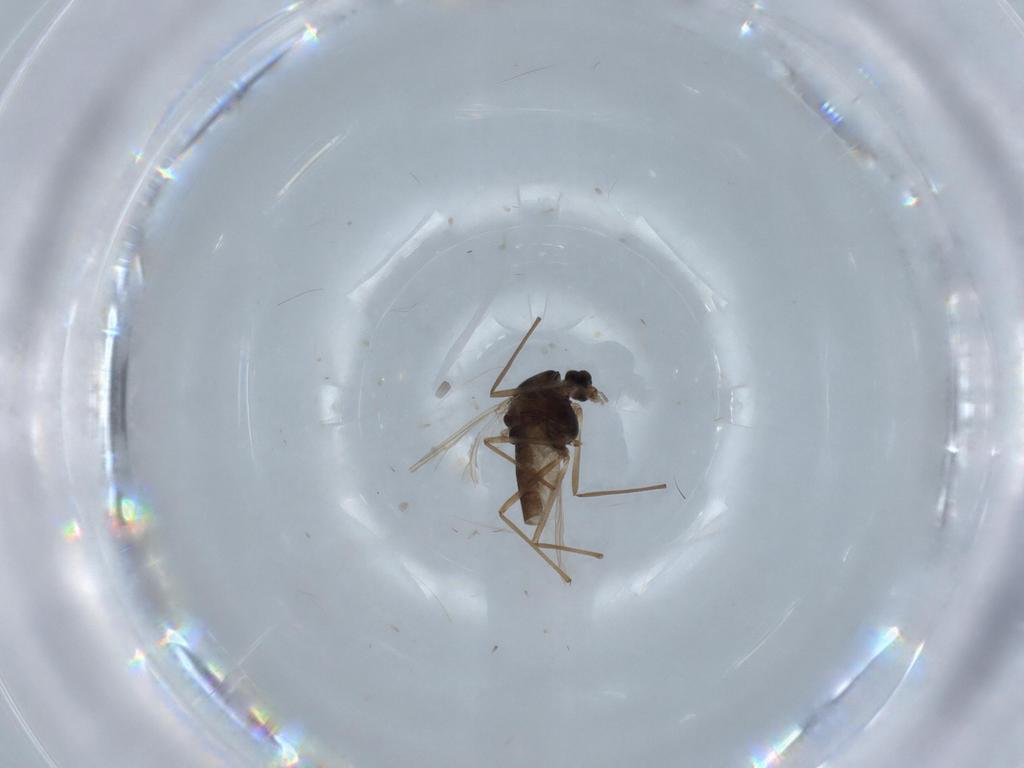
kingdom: Animalia
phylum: Arthropoda
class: Insecta
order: Diptera
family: Chironomidae
